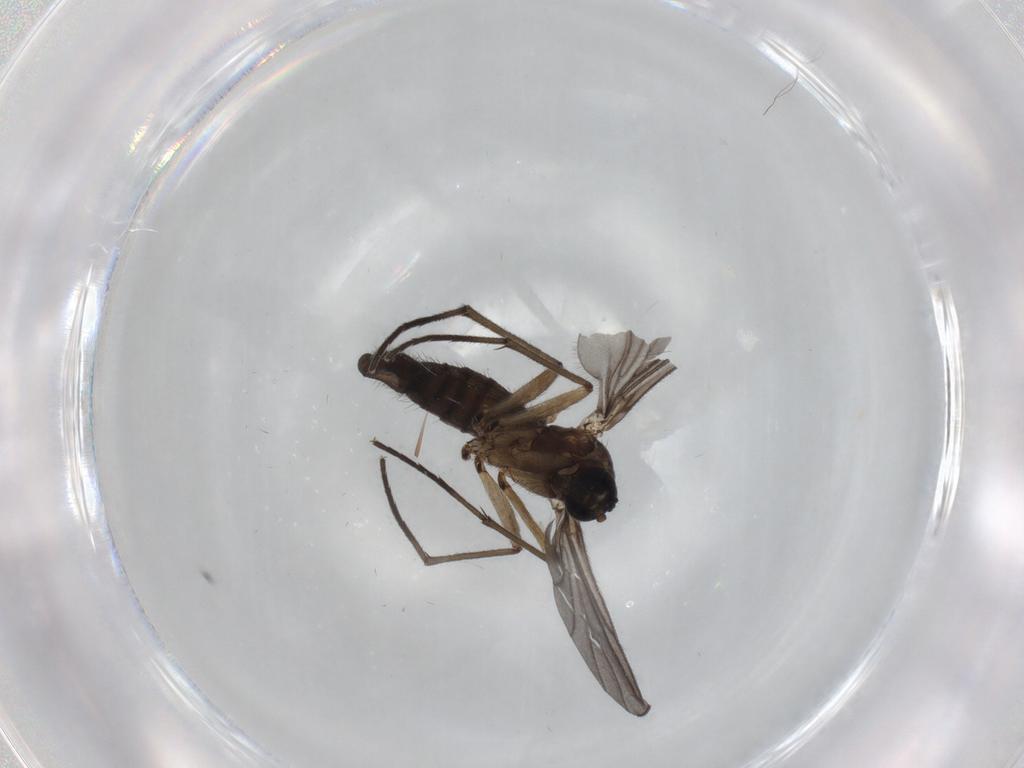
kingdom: Animalia
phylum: Arthropoda
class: Insecta
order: Diptera
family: Sciaridae
